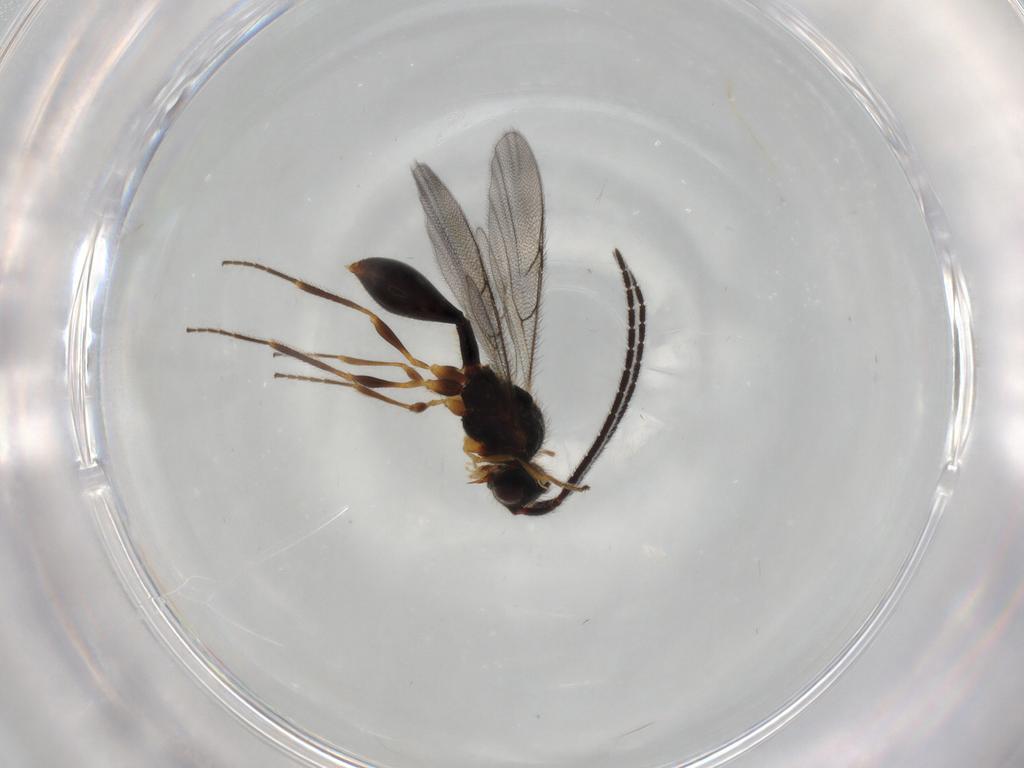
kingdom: Animalia
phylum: Arthropoda
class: Insecta
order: Hymenoptera
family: Diapriidae
